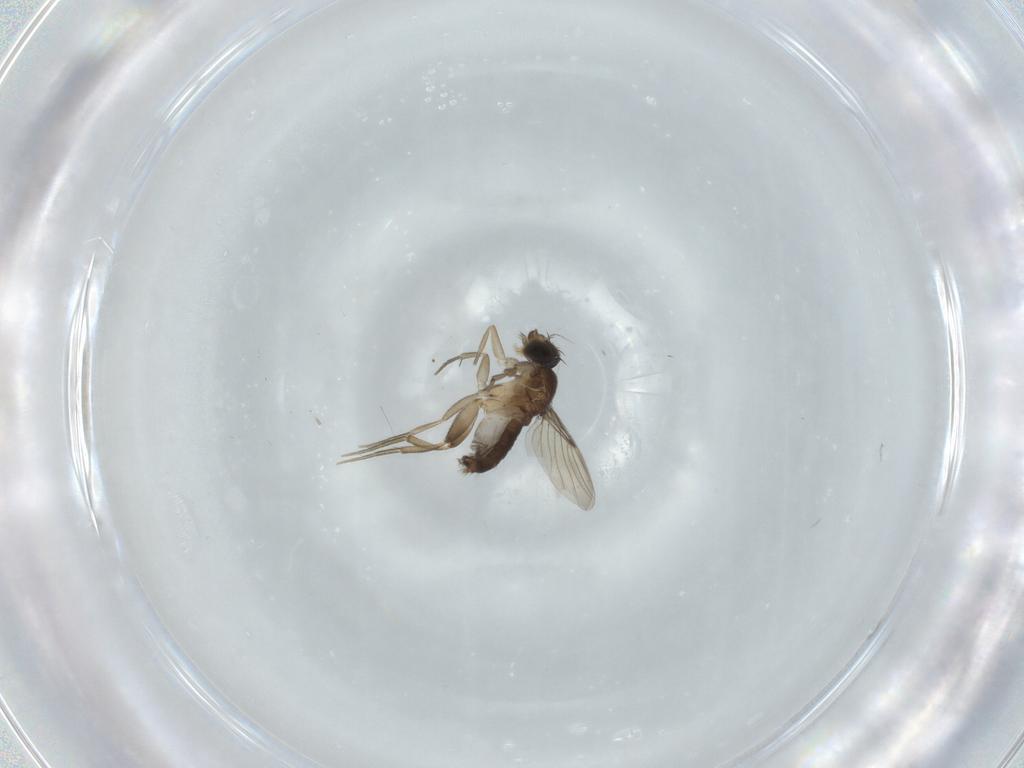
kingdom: Animalia
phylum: Arthropoda
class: Insecta
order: Diptera
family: Phoridae
